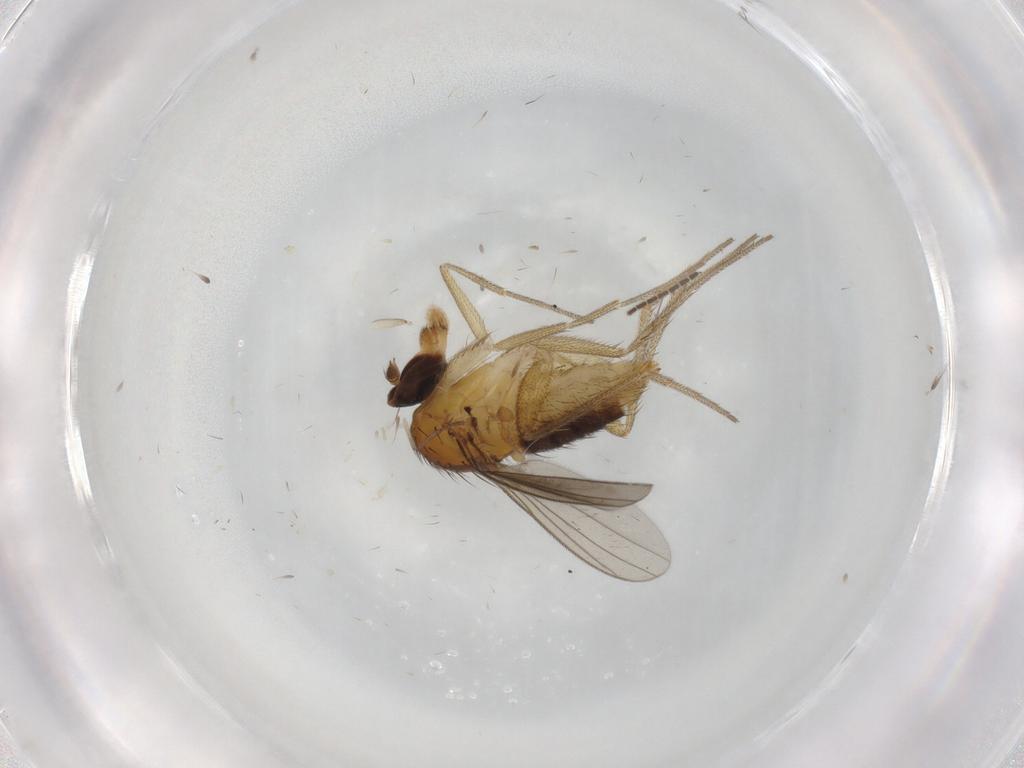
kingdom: Animalia
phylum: Arthropoda
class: Insecta
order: Diptera
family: Dolichopodidae
